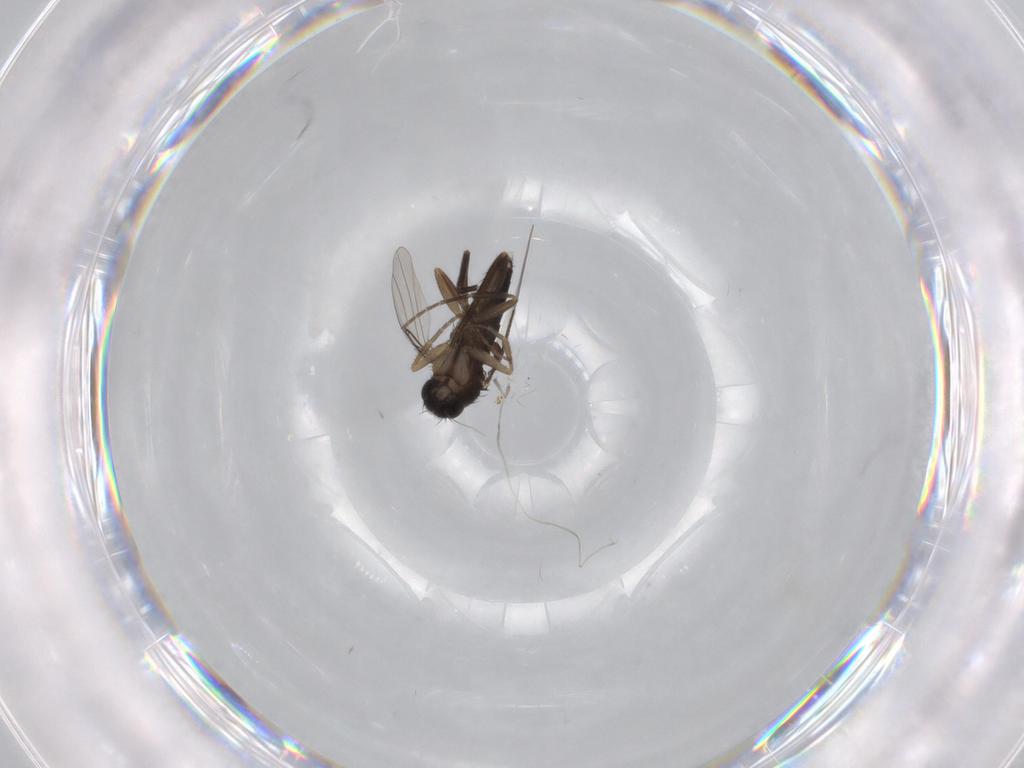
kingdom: Animalia
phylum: Arthropoda
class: Insecta
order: Diptera
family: Phoridae
